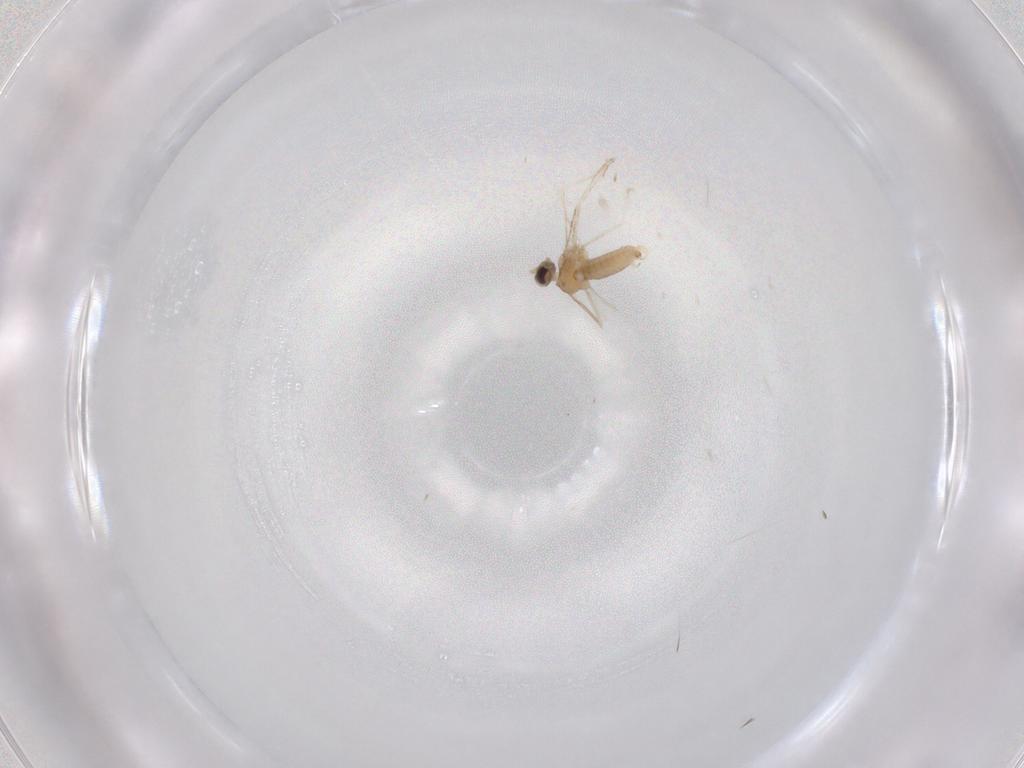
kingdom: Animalia
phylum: Arthropoda
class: Insecta
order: Diptera
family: Cecidomyiidae
